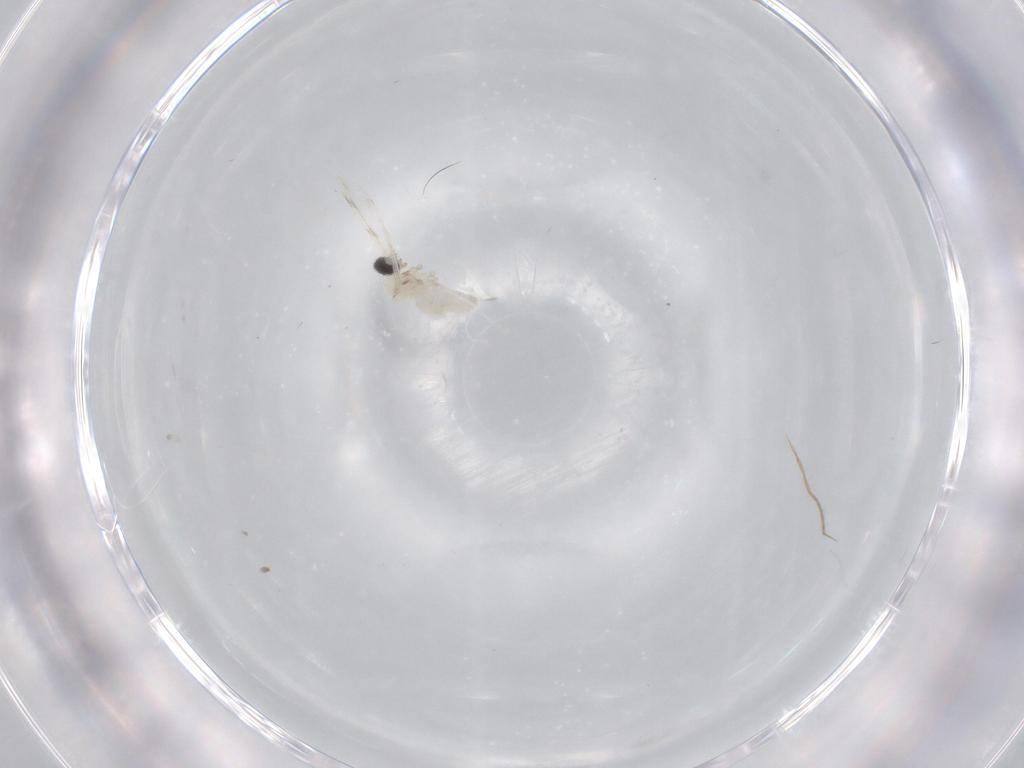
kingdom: Animalia
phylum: Arthropoda
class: Insecta
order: Diptera
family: Cecidomyiidae
